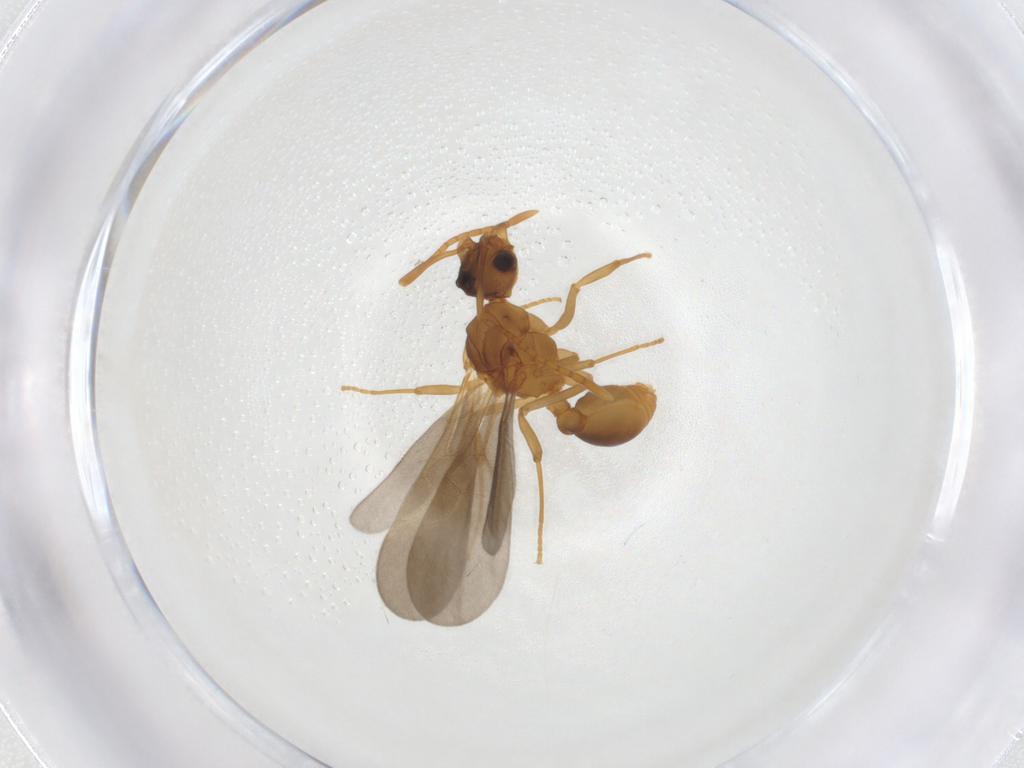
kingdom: Animalia
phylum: Arthropoda
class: Insecta
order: Hymenoptera
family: Formicidae
